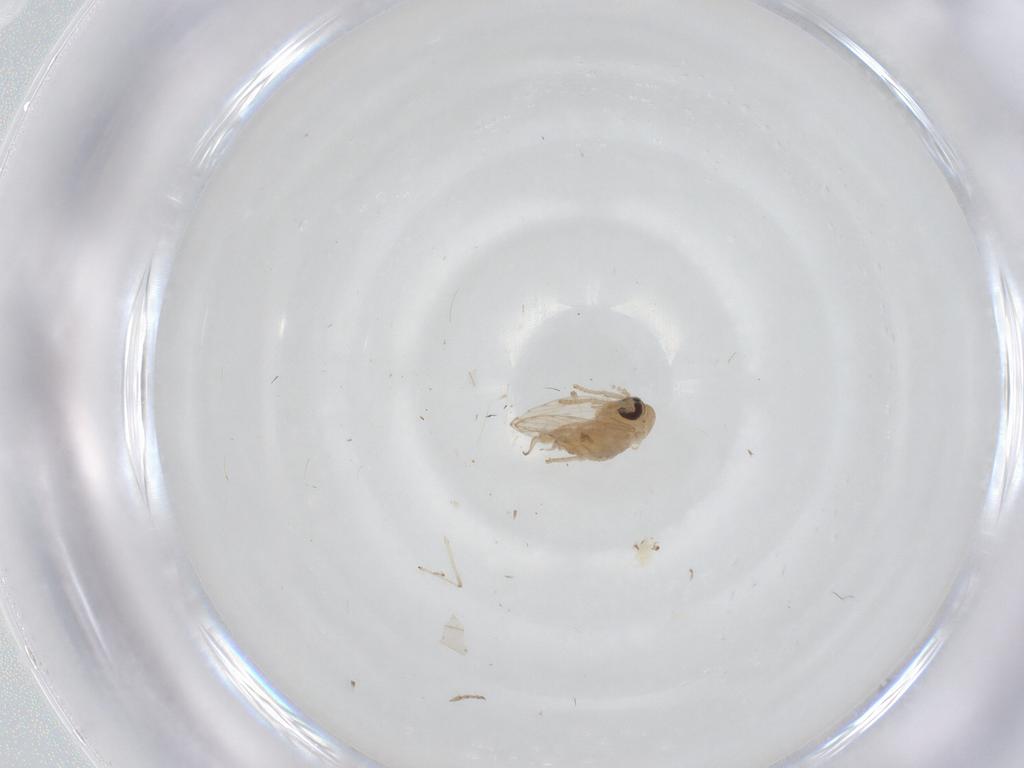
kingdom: Animalia
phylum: Arthropoda
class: Insecta
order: Diptera
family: Psychodidae
